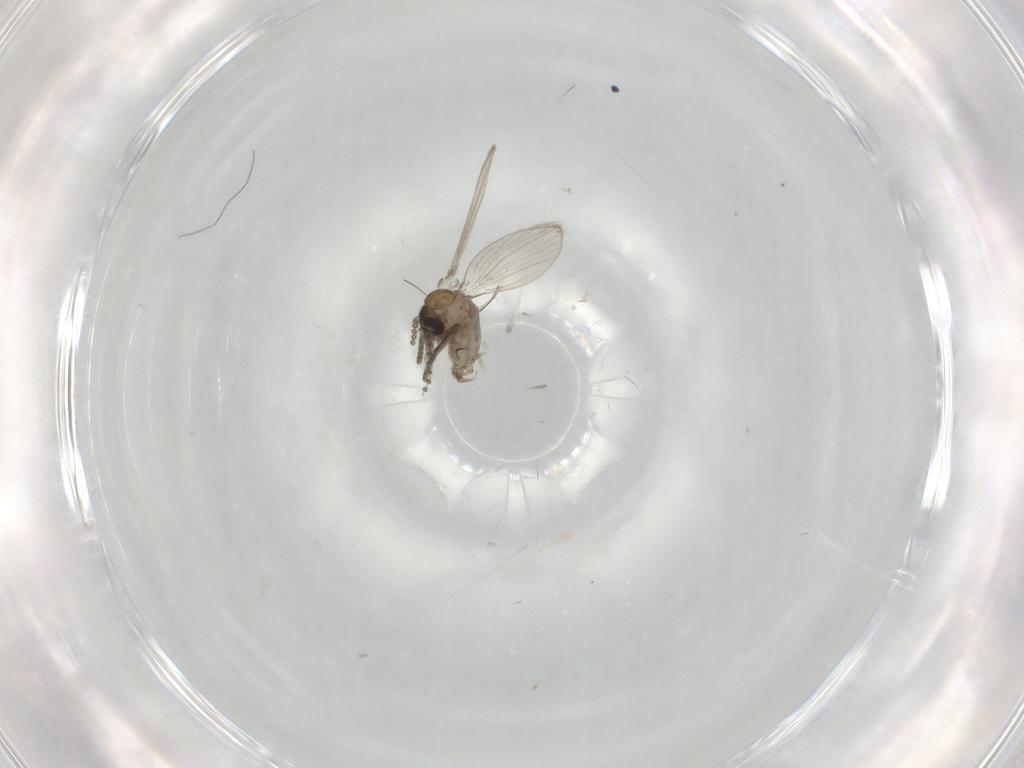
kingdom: Animalia
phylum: Arthropoda
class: Insecta
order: Diptera
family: Psychodidae
